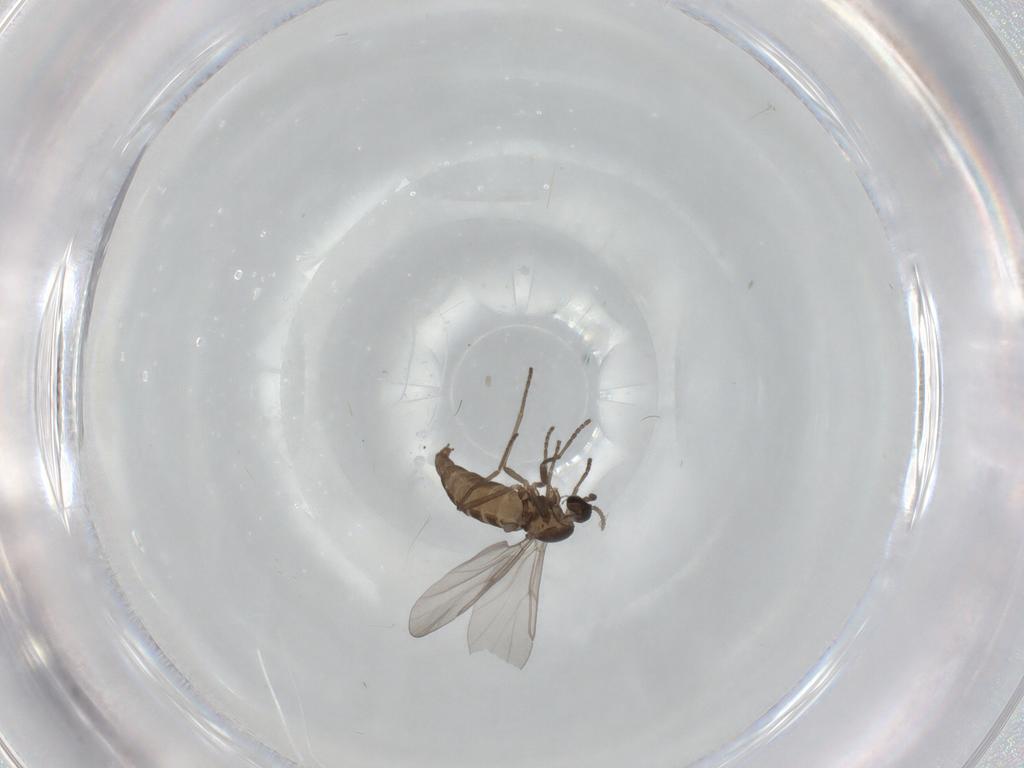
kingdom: Animalia
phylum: Arthropoda
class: Insecta
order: Diptera
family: Cecidomyiidae
